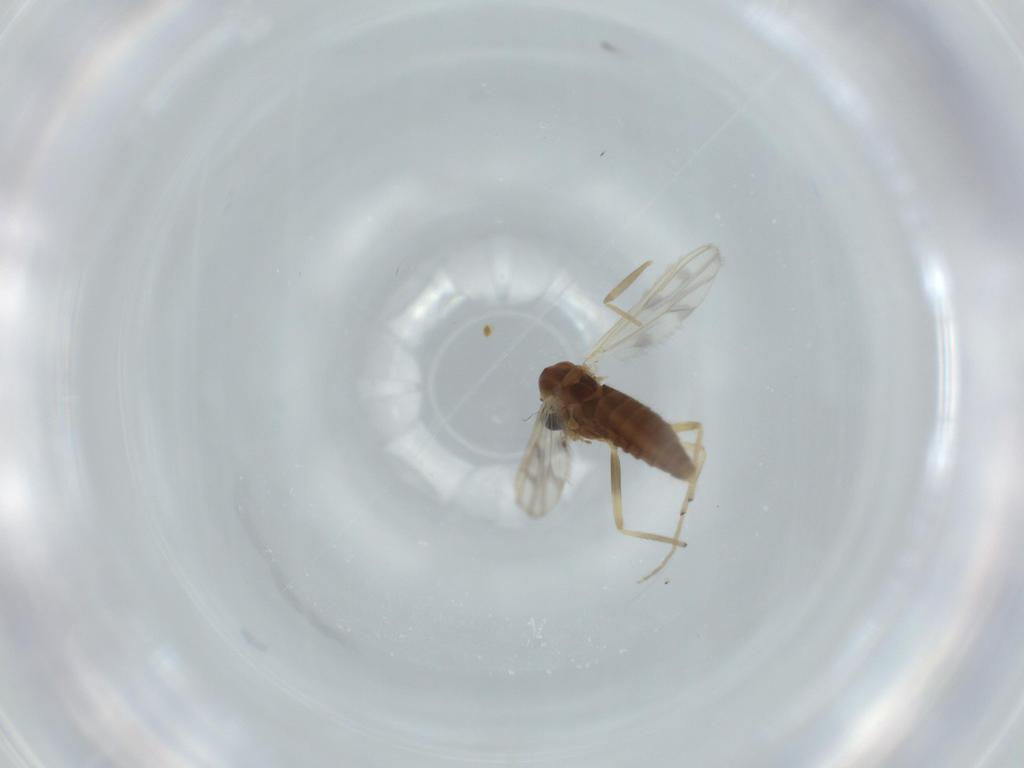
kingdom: Animalia
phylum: Arthropoda
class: Insecta
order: Diptera
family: Chironomidae
